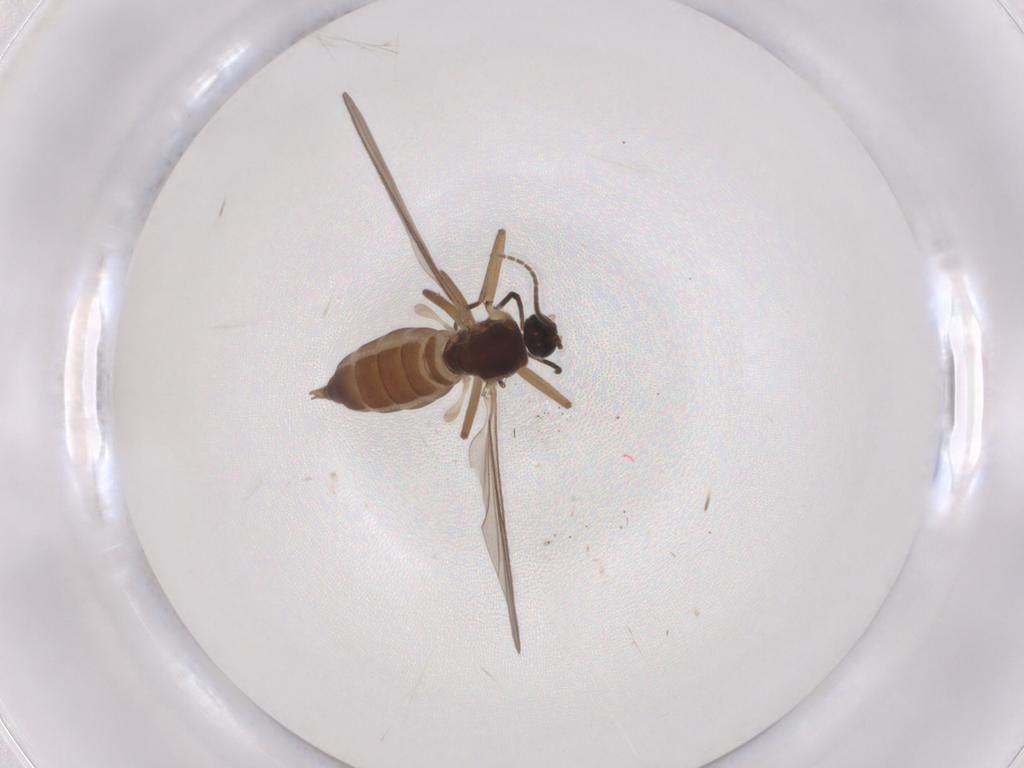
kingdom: Animalia
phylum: Arthropoda
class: Insecta
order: Diptera
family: Sciaridae
